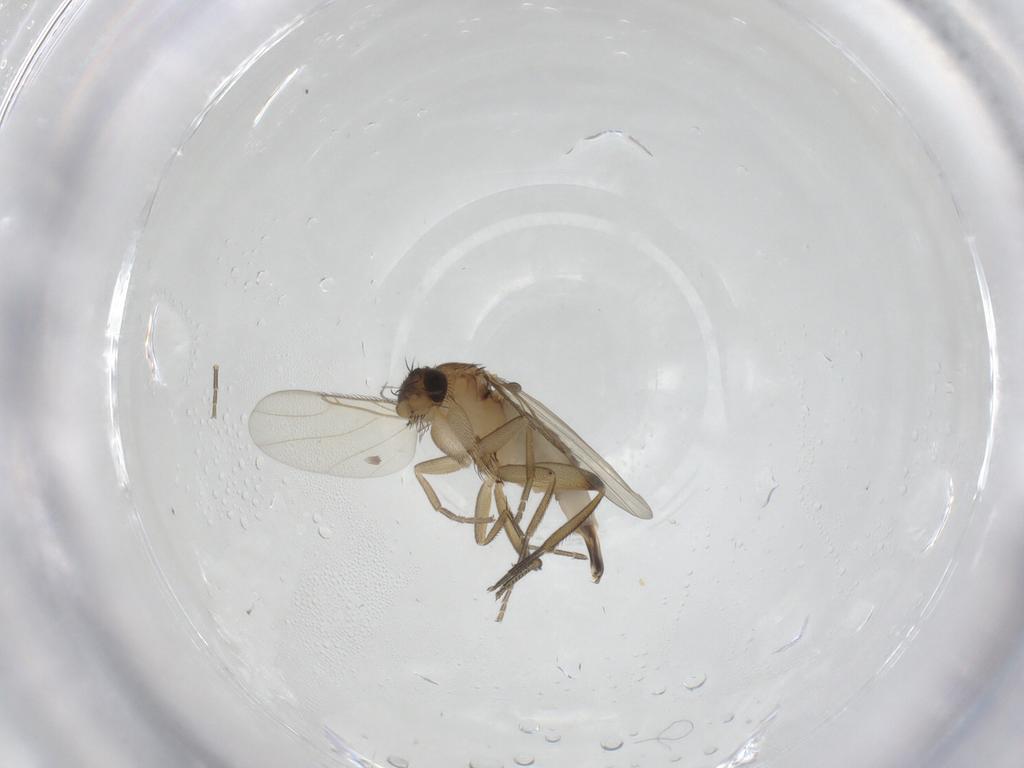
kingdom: Animalia
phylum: Arthropoda
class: Insecta
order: Diptera
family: Phoridae
